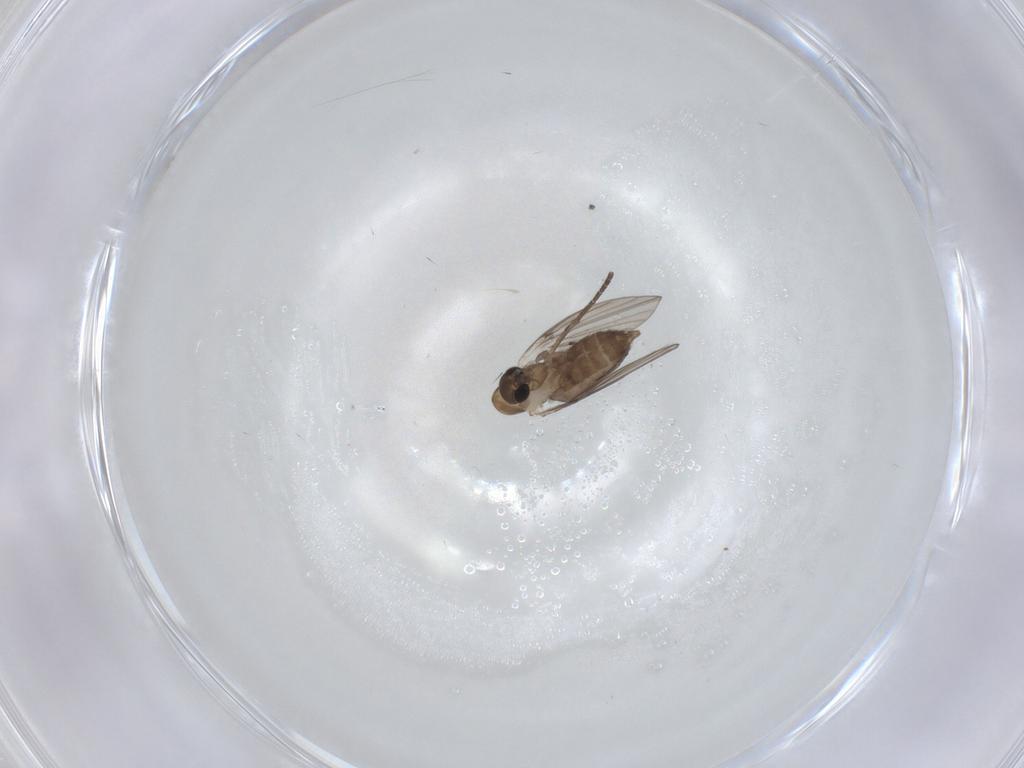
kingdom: Animalia
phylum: Arthropoda
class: Insecta
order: Diptera
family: Psychodidae
